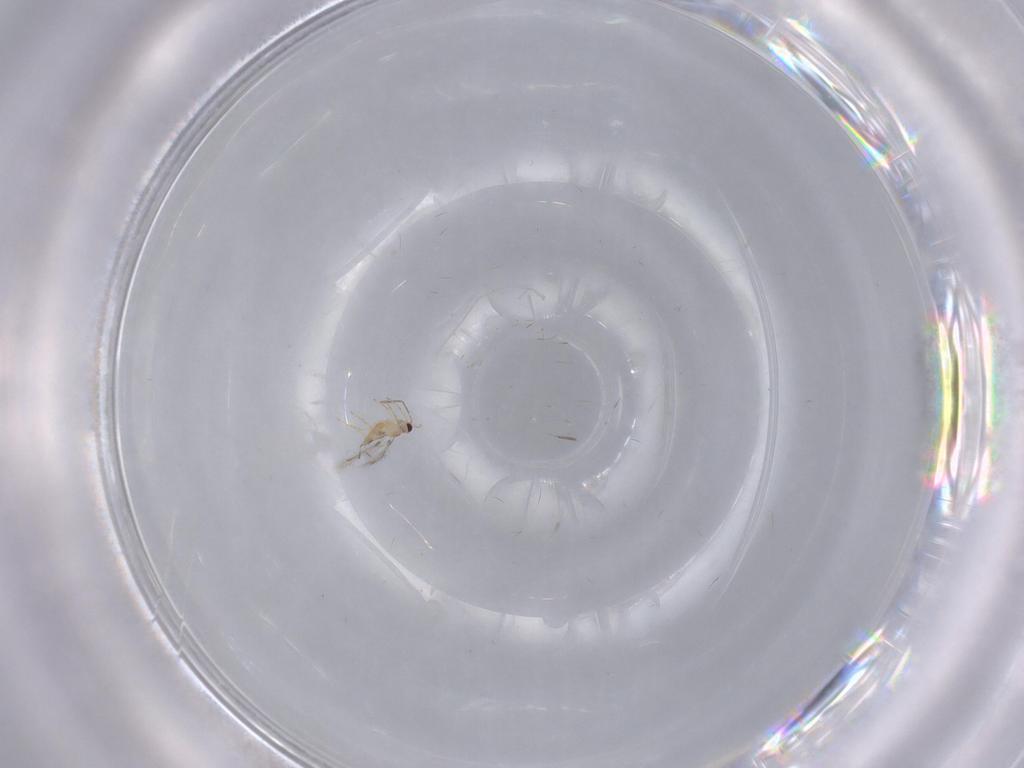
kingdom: Animalia
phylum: Arthropoda
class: Insecta
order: Hymenoptera
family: Mymaridae
